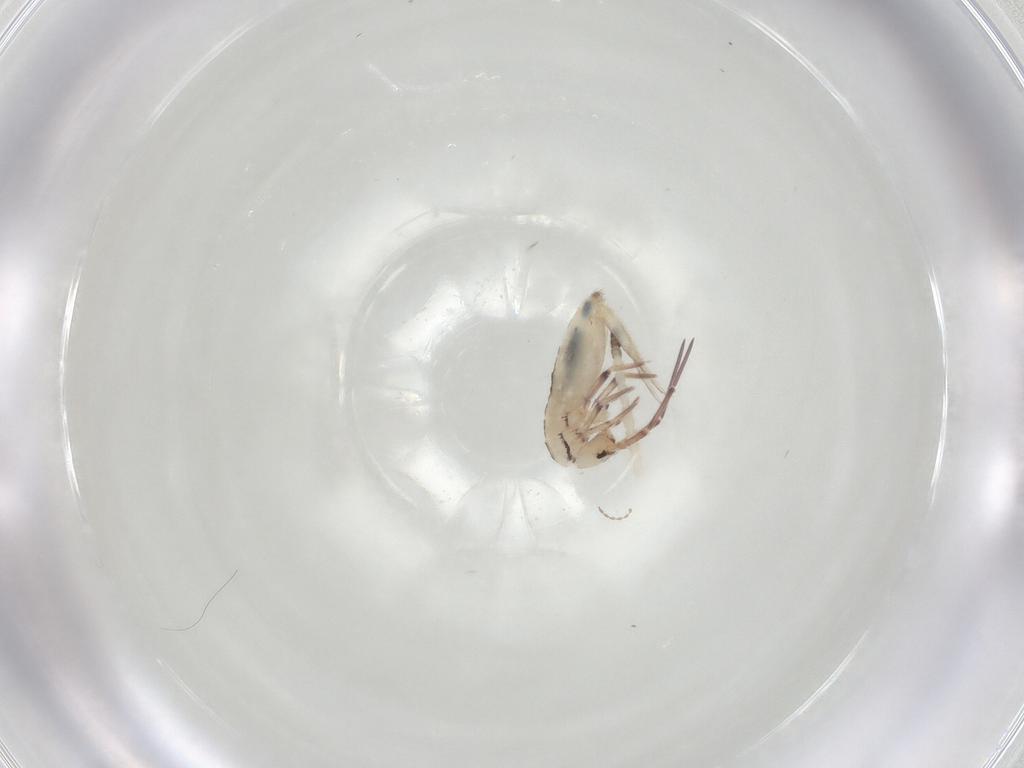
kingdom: Animalia
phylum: Arthropoda
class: Collembola
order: Entomobryomorpha
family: Entomobryidae
